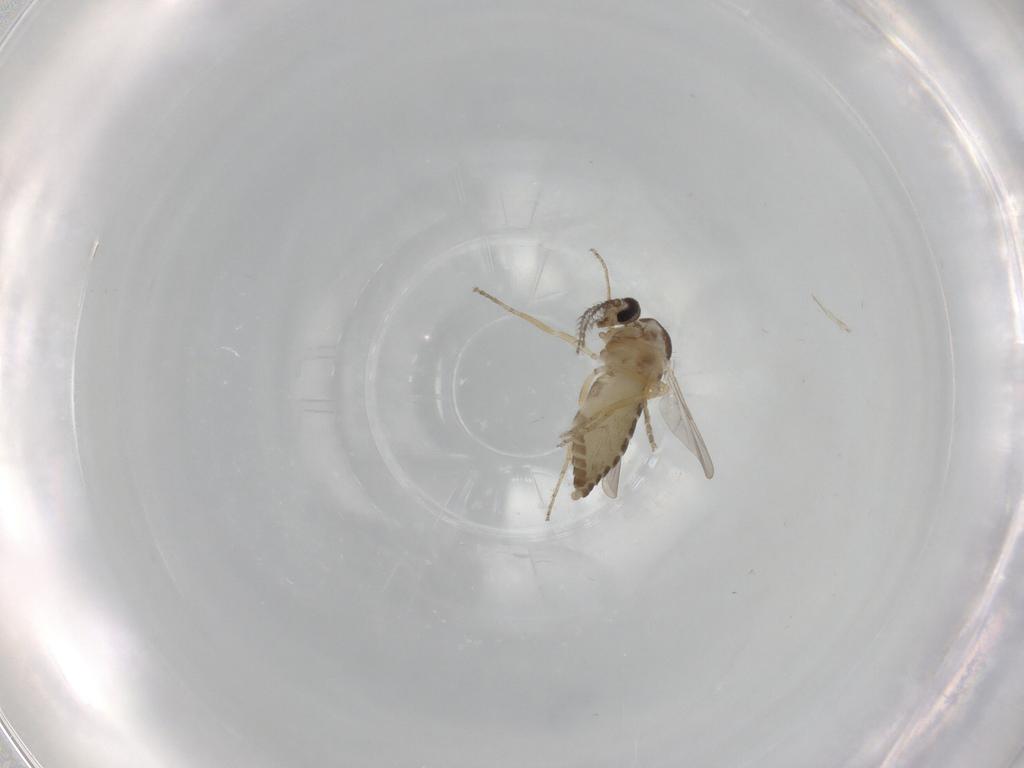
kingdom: Animalia
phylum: Arthropoda
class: Insecta
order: Diptera
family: Ceratopogonidae
